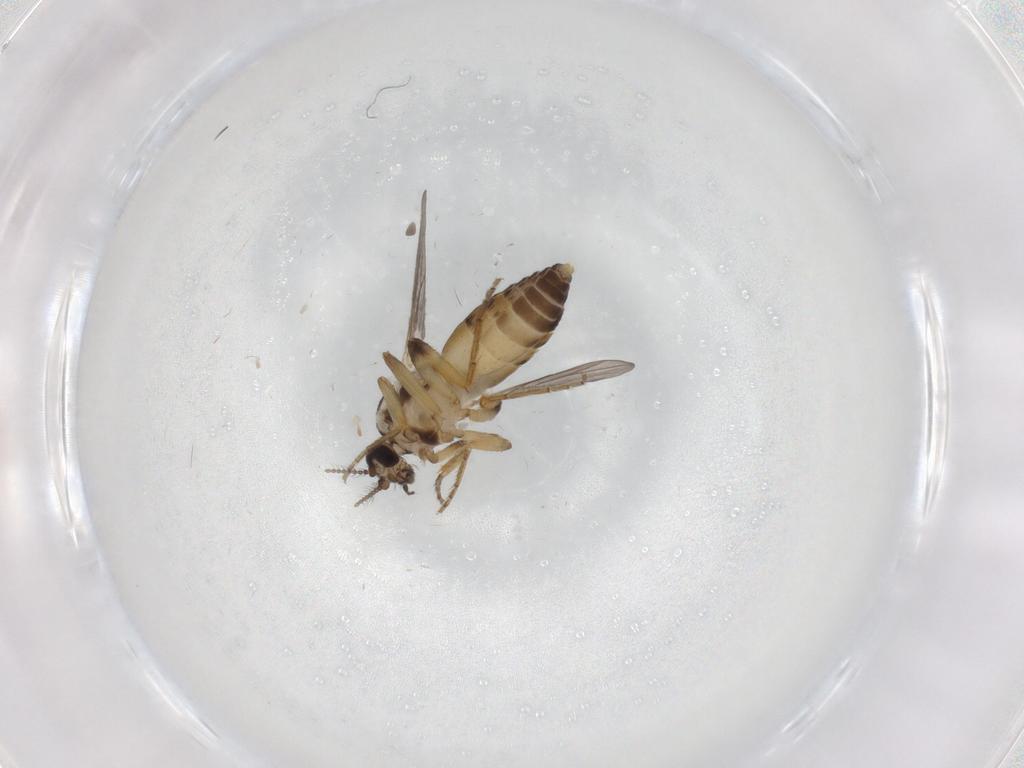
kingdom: Animalia
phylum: Arthropoda
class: Insecta
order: Diptera
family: Ceratopogonidae
